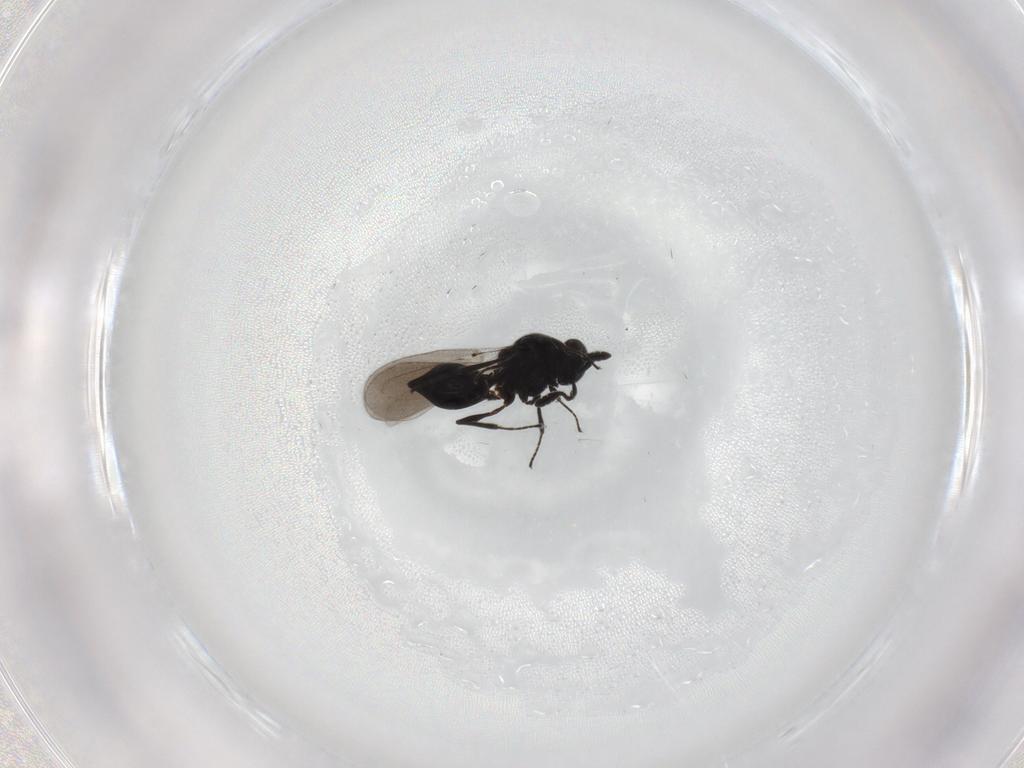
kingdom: Animalia
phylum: Arthropoda
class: Insecta
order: Hymenoptera
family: Platygastridae
